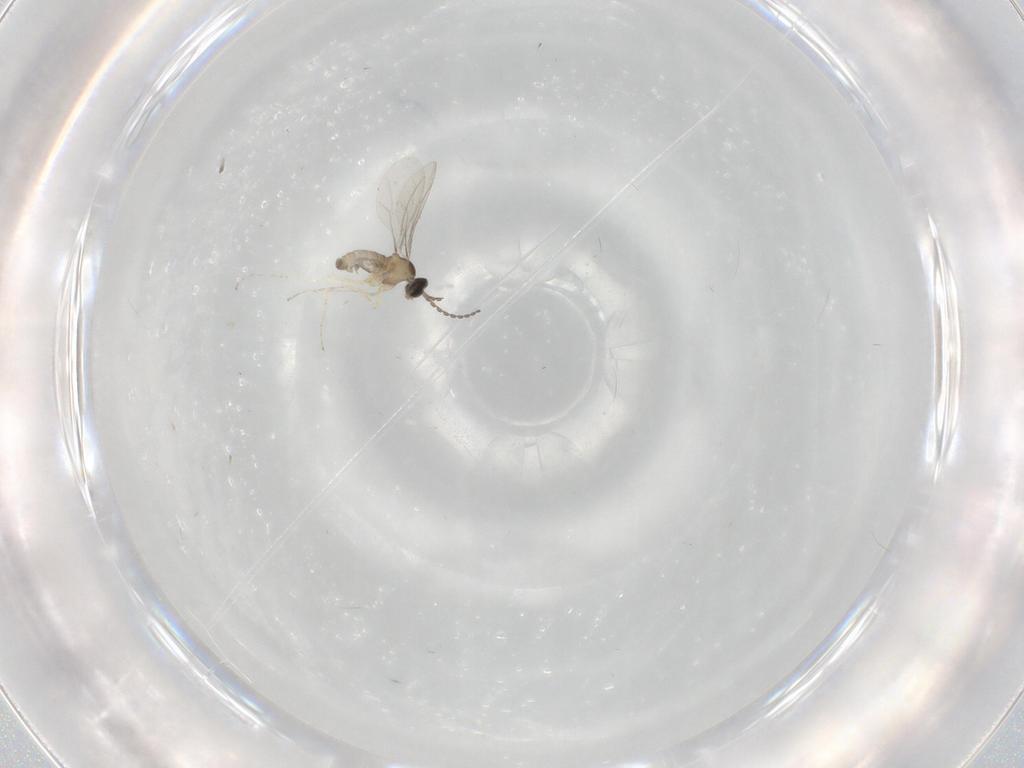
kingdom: Animalia
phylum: Arthropoda
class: Insecta
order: Diptera
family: Cecidomyiidae
